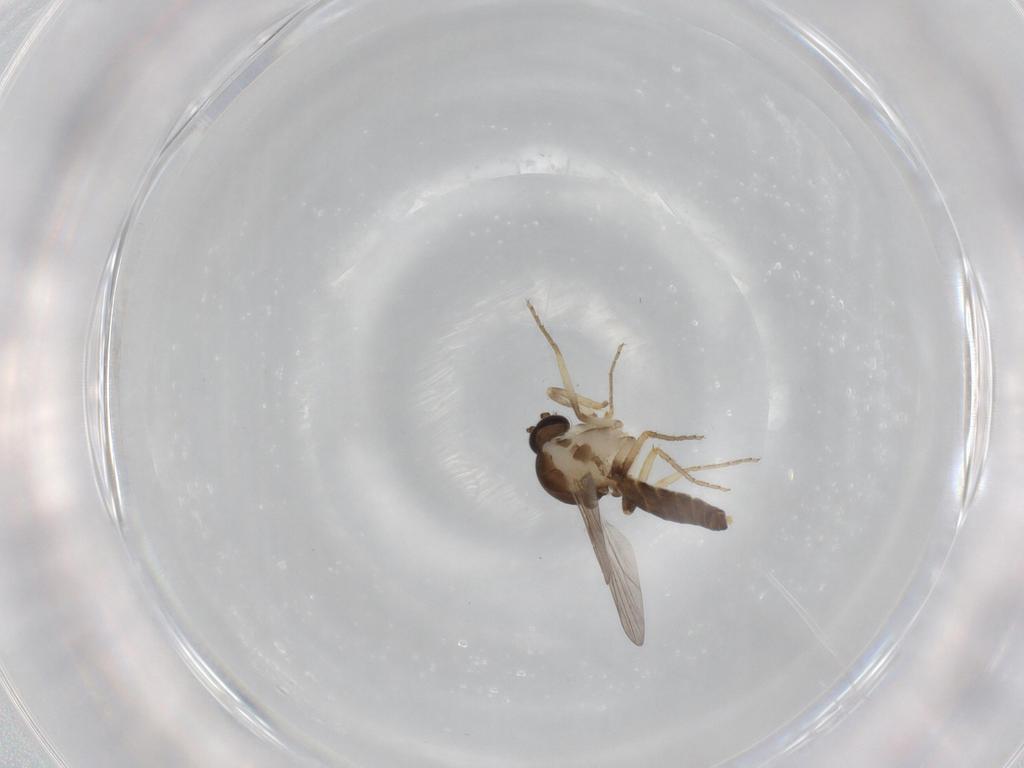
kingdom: Animalia
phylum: Arthropoda
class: Insecta
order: Diptera
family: Ceratopogonidae
